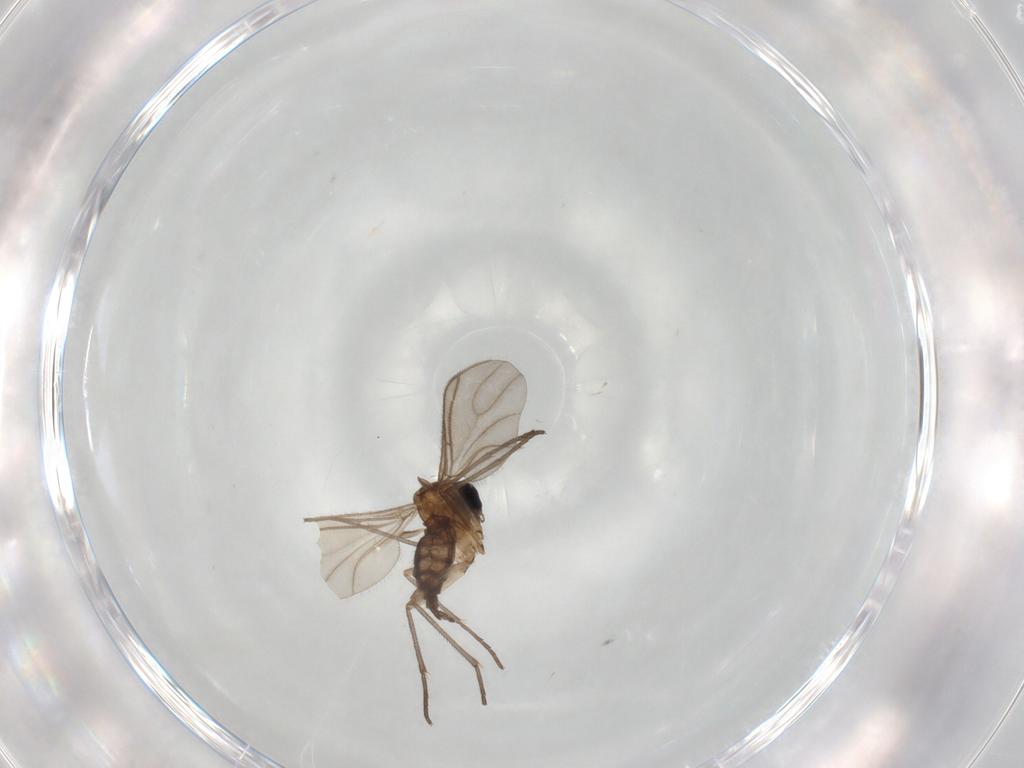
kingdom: Animalia
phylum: Arthropoda
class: Insecta
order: Diptera
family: Sciaridae
